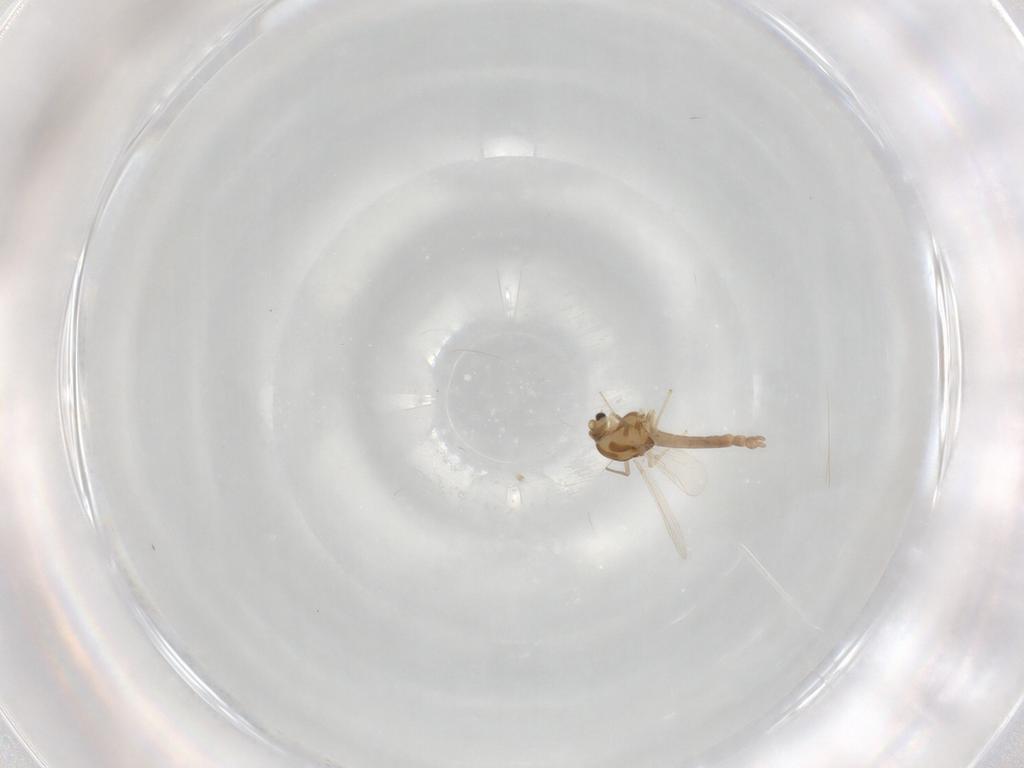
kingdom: Animalia
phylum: Arthropoda
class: Insecta
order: Diptera
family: Chironomidae
